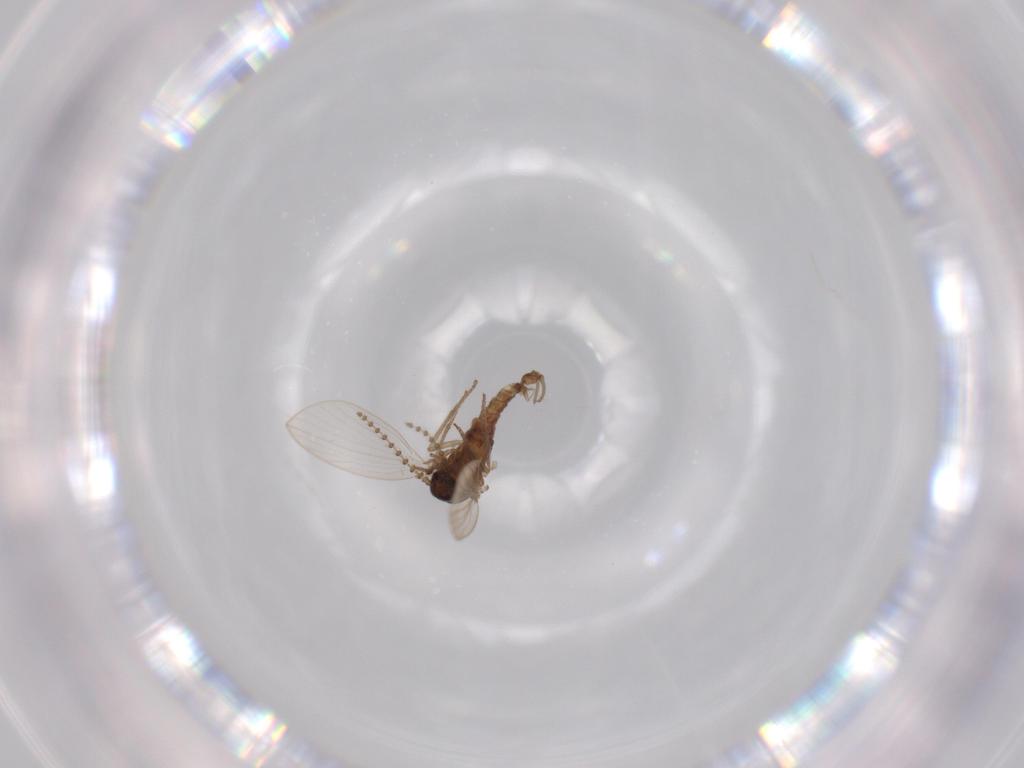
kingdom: Animalia
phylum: Arthropoda
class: Insecta
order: Diptera
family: Psychodidae
